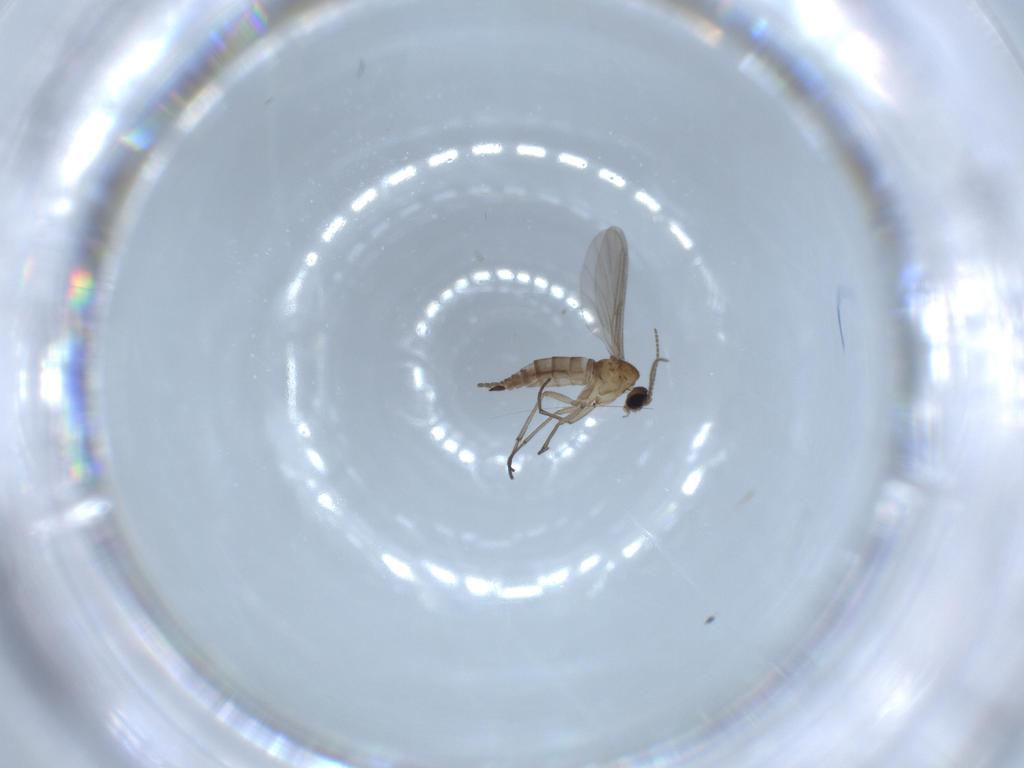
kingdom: Animalia
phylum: Arthropoda
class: Insecta
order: Diptera
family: Sciaridae
